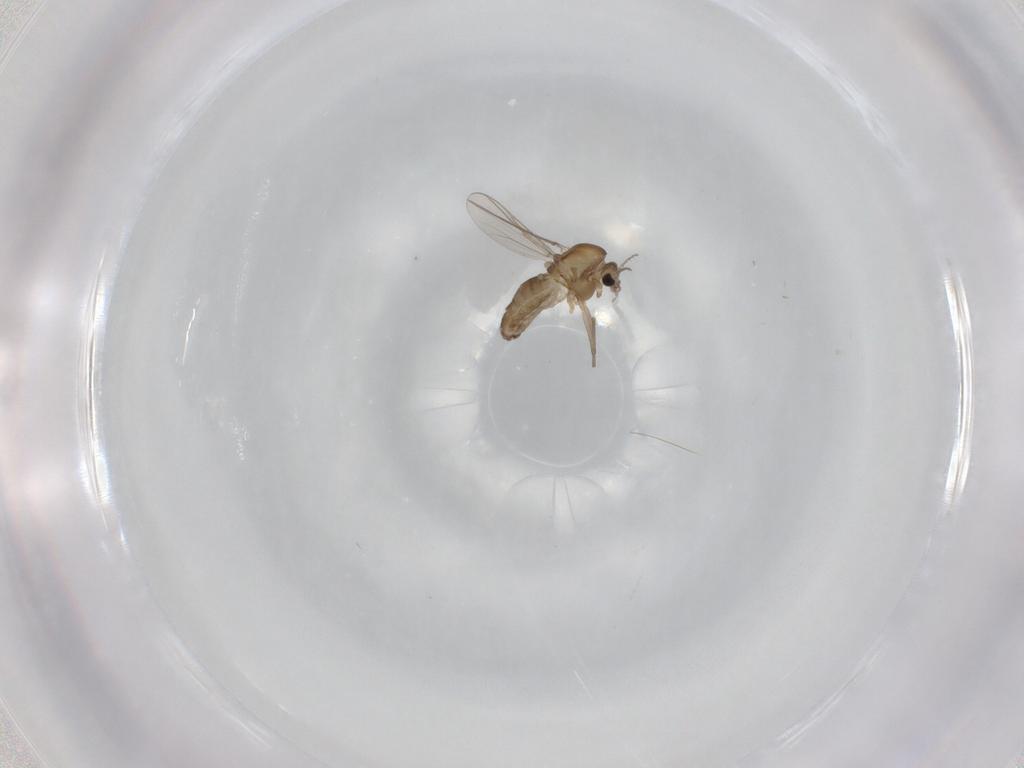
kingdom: Animalia
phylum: Arthropoda
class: Insecta
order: Diptera
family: Chironomidae
